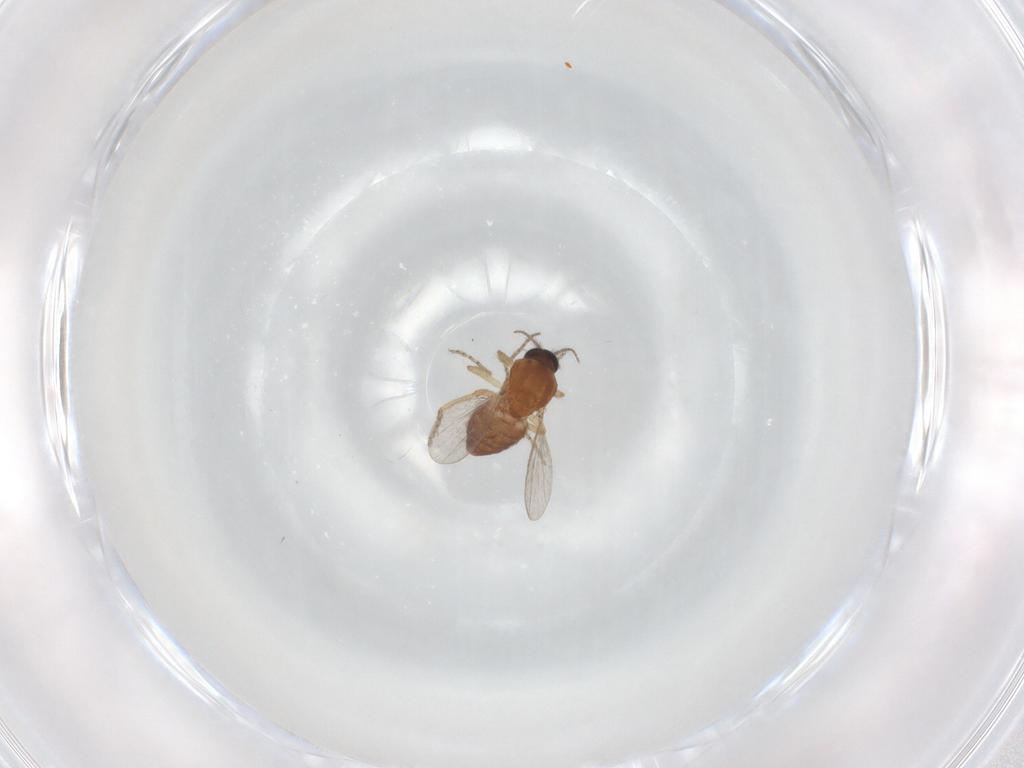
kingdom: Animalia
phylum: Arthropoda
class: Insecta
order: Diptera
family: Ceratopogonidae
